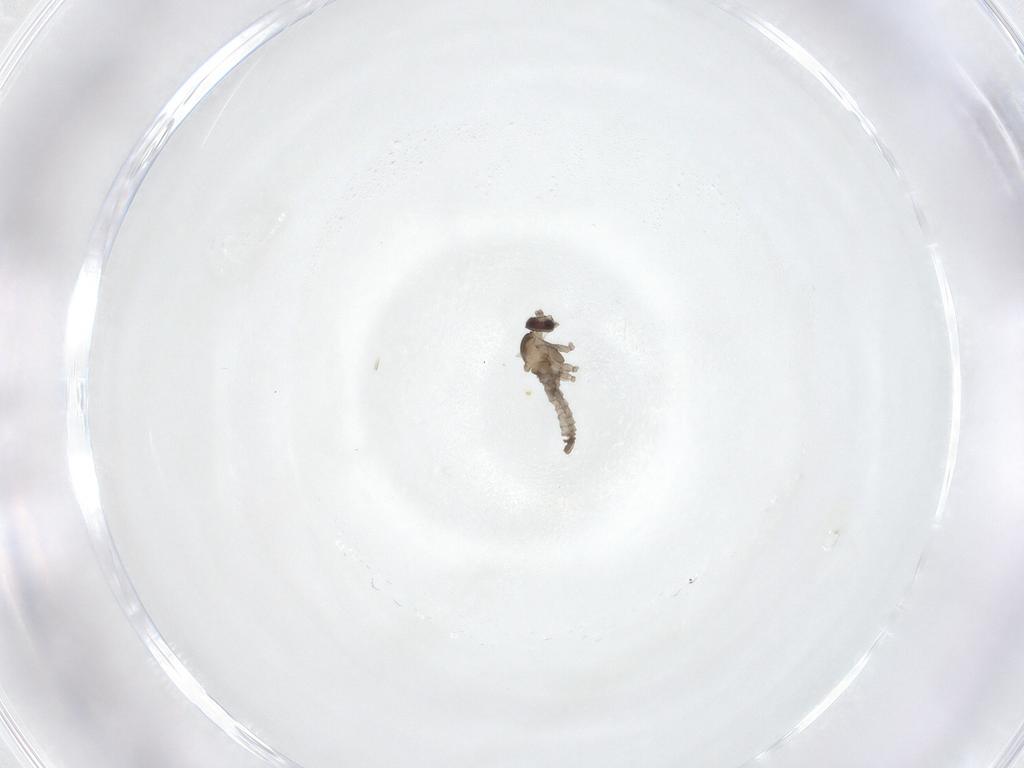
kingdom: Animalia
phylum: Arthropoda
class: Insecta
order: Diptera
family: Cecidomyiidae
